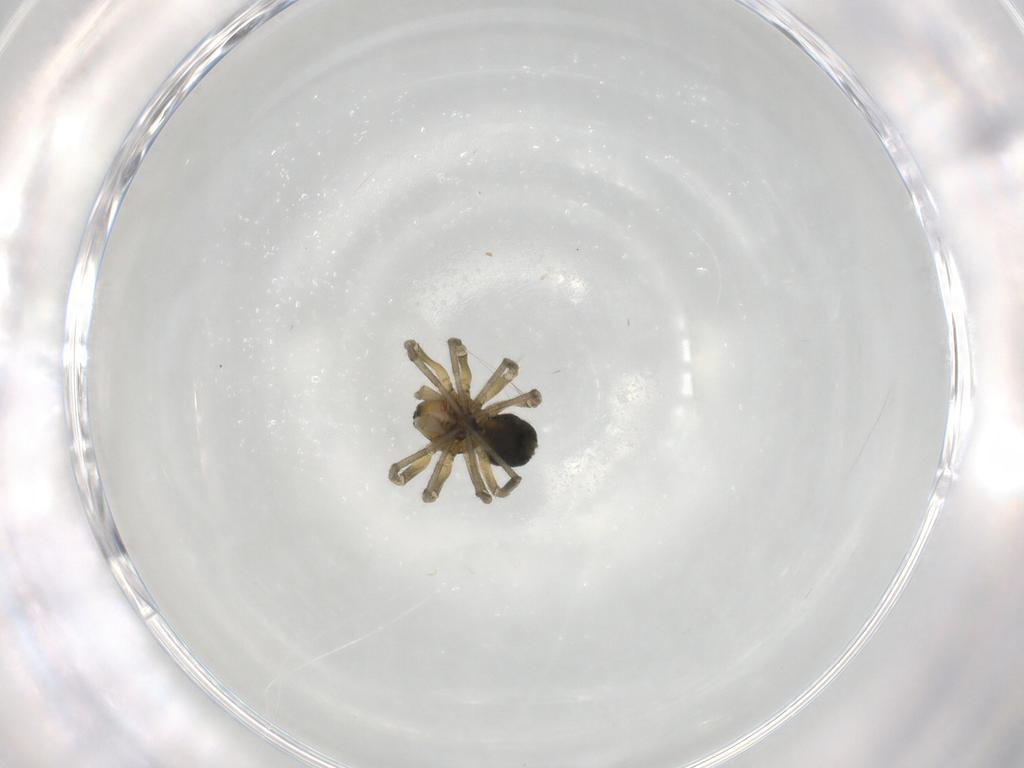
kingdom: Animalia
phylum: Arthropoda
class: Arachnida
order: Araneae
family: Linyphiidae
